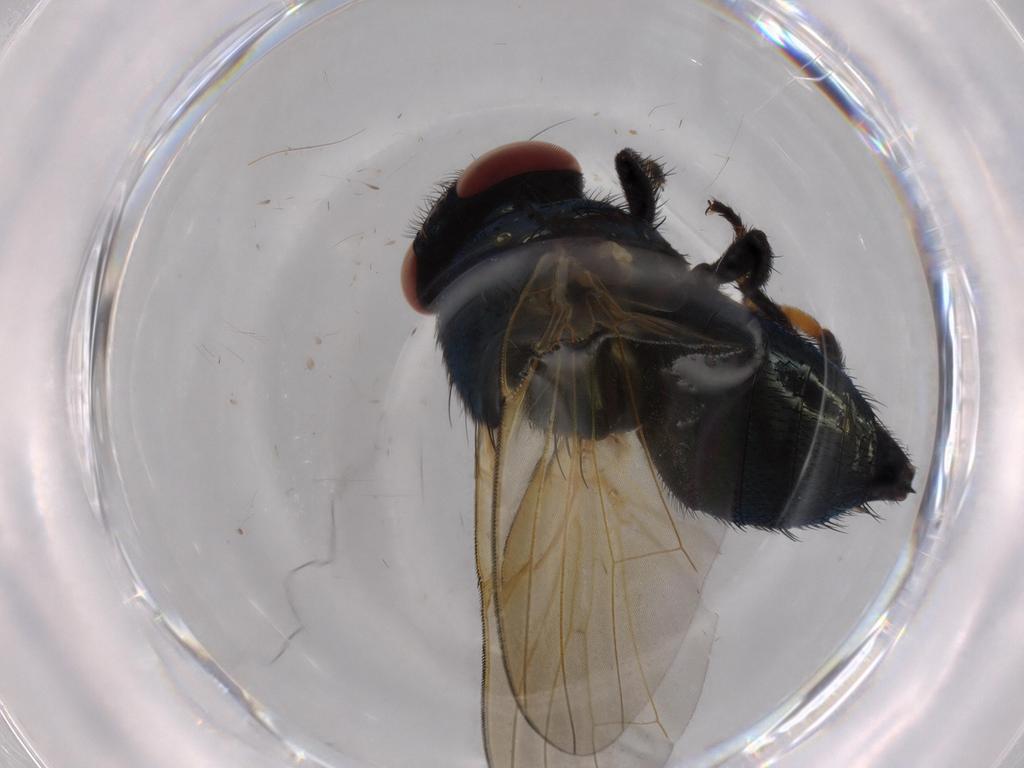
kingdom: Animalia
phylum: Arthropoda
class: Insecta
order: Diptera
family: Lonchaeidae
